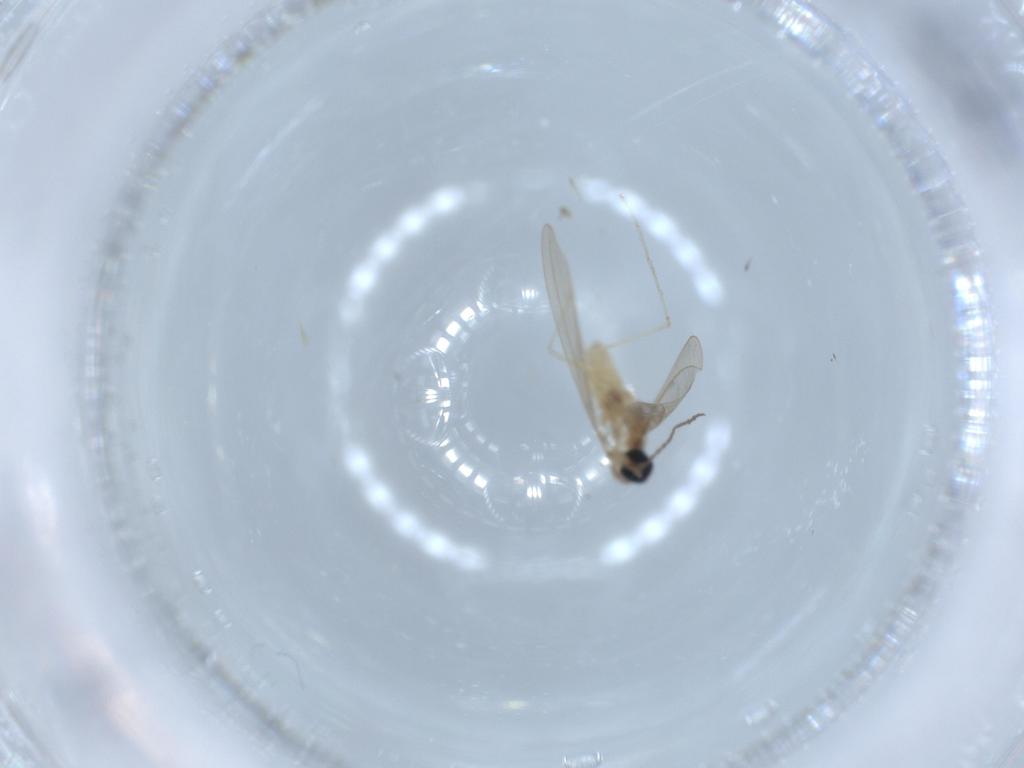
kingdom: Animalia
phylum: Arthropoda
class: Insecta
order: Diptera
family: Cecidomyiidae
